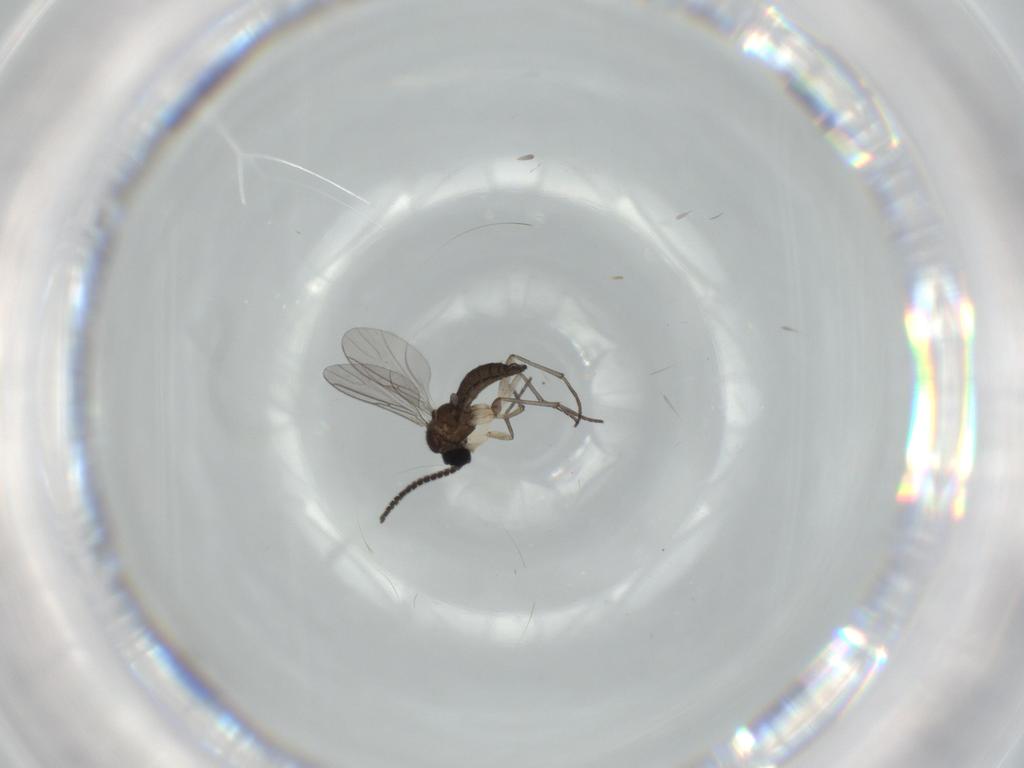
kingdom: Animalia
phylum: Arthropoda
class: Insecta
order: Diptera
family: Sciaridae
